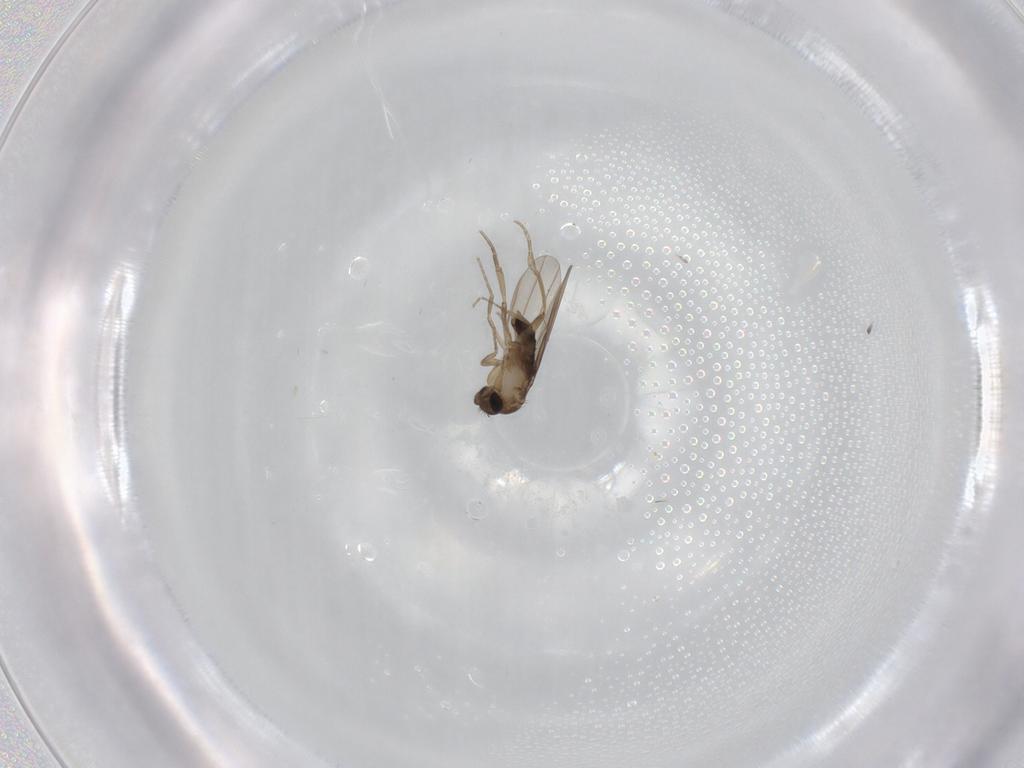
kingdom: Animalia
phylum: Arthropoda
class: Insecta
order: Diptera
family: Phoridae
